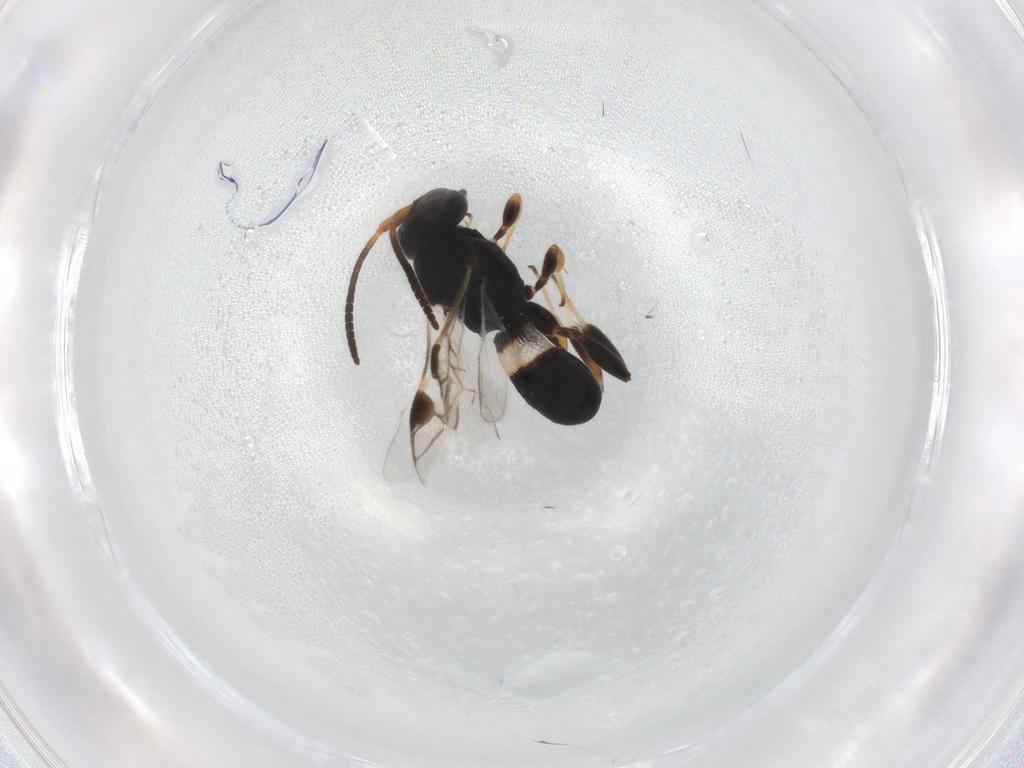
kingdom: Animalia
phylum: Arthropoda
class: Insecta
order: Hymenoptera
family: Braconidae
